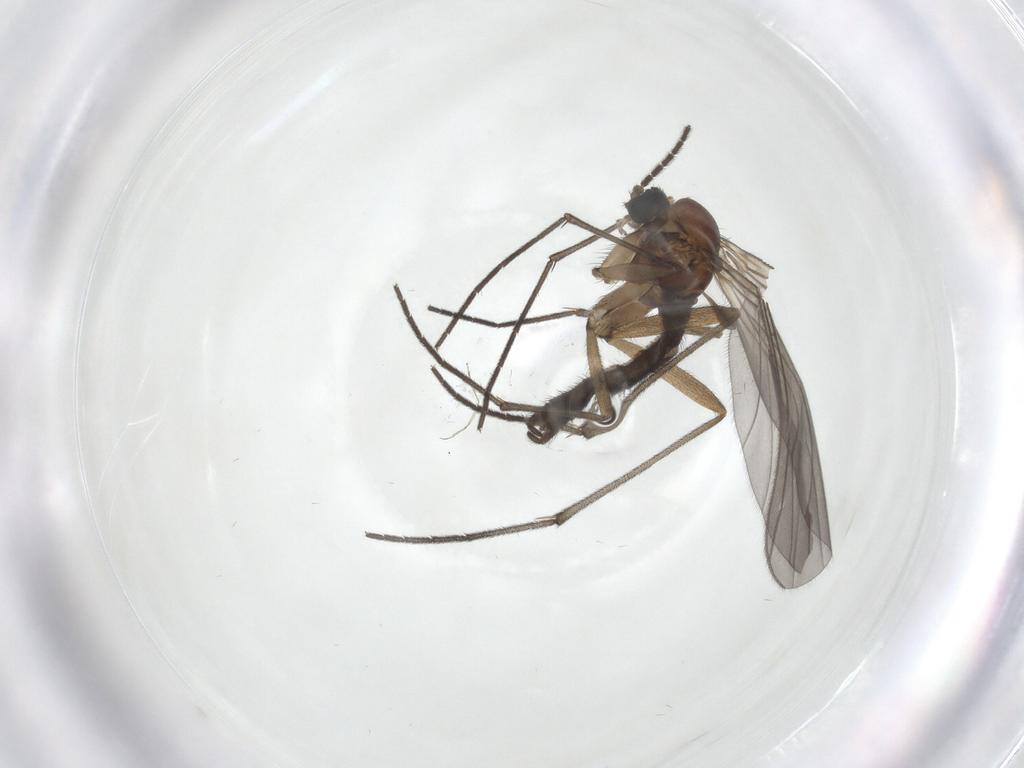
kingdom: Animalia
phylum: Arthropoda
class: Insecta
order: Diptera
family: Sciaridae
